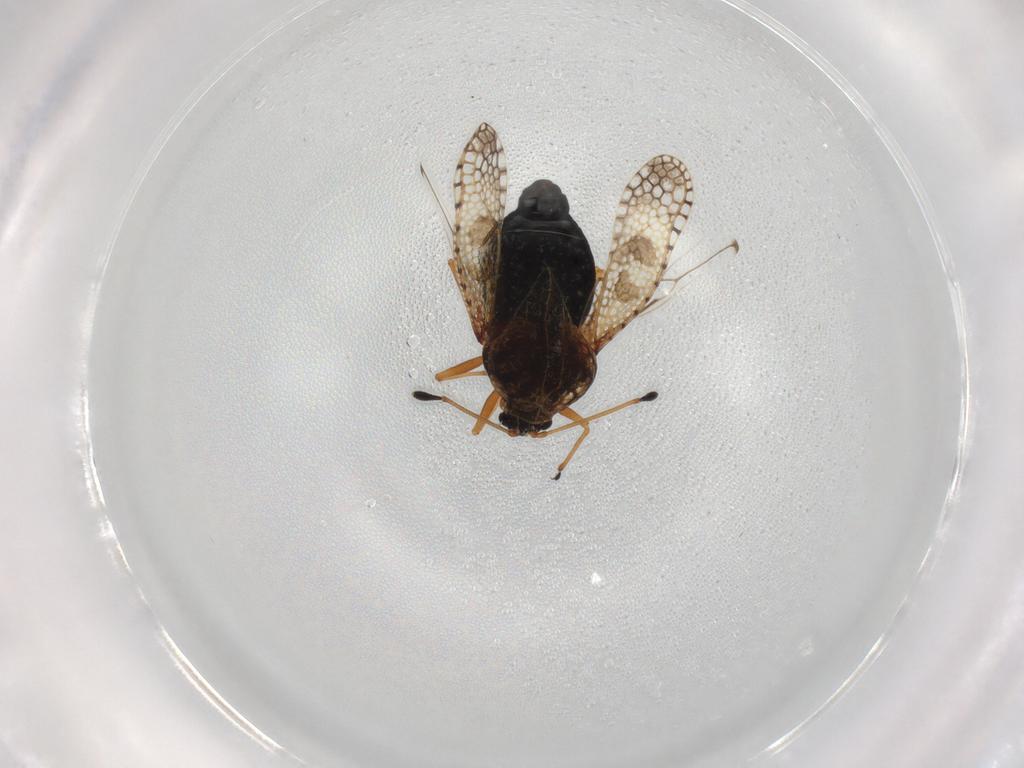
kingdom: Animalia
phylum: Arthropoda
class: Insecta
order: Hemiptera
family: Tingidae
